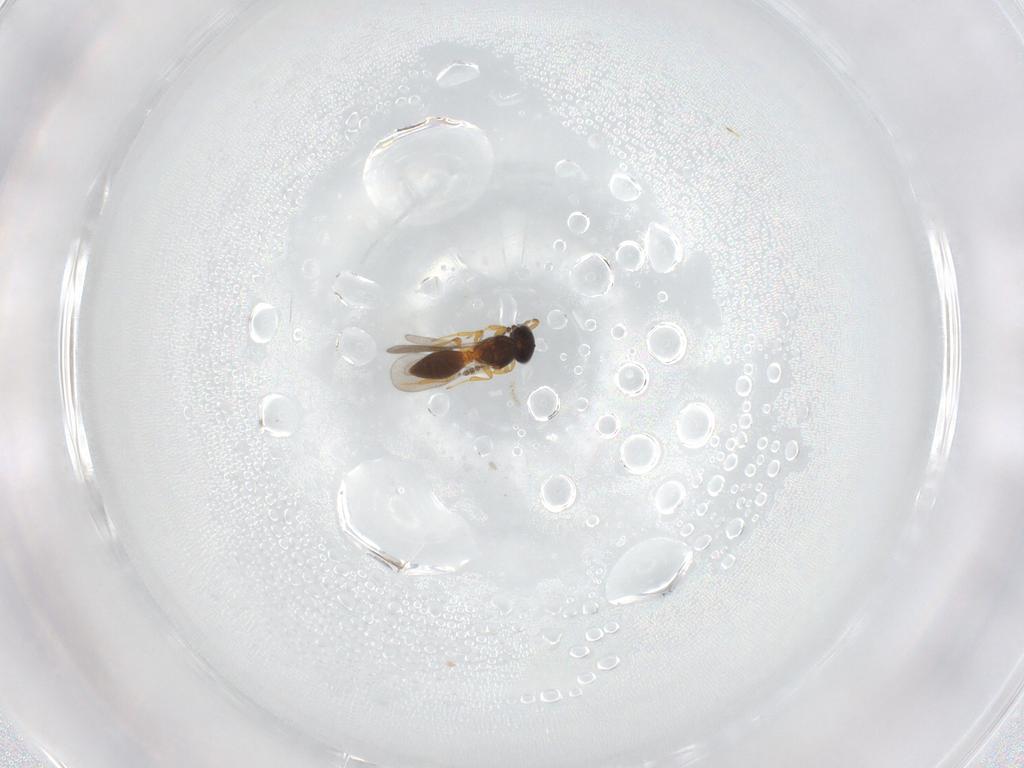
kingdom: Animalia
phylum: Arthropoda
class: Insecta
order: Hymenoptera
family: Platygastridae
